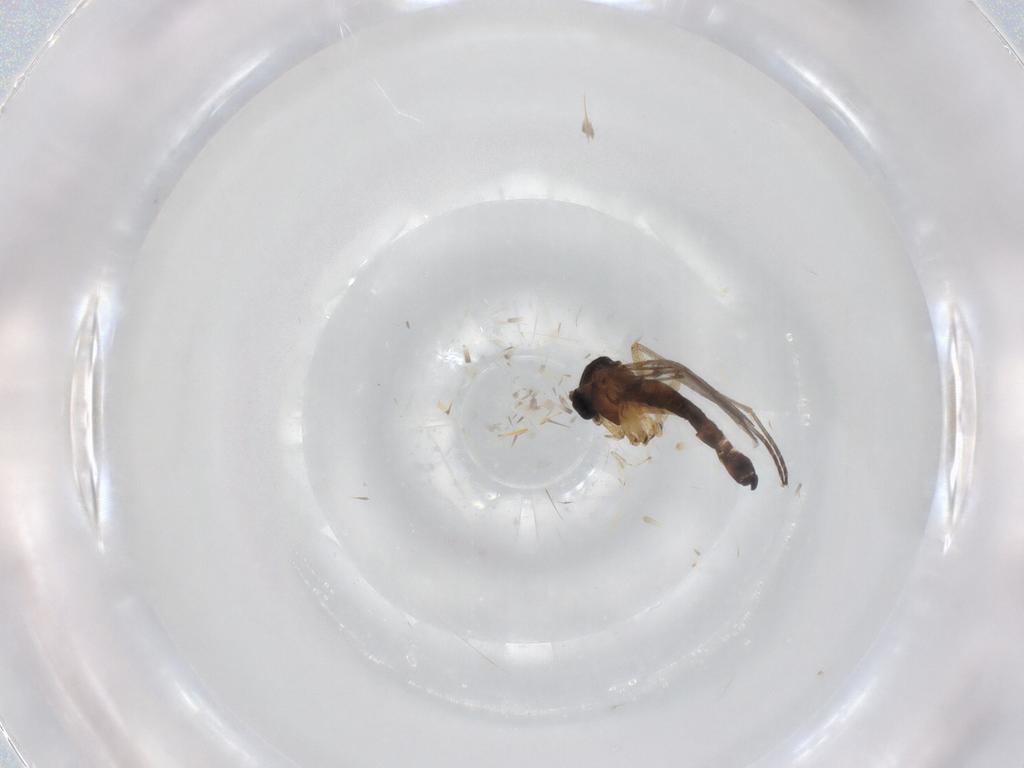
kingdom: Animalia
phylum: Arthropoda
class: Insecta
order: Diptera
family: Sciaridae
